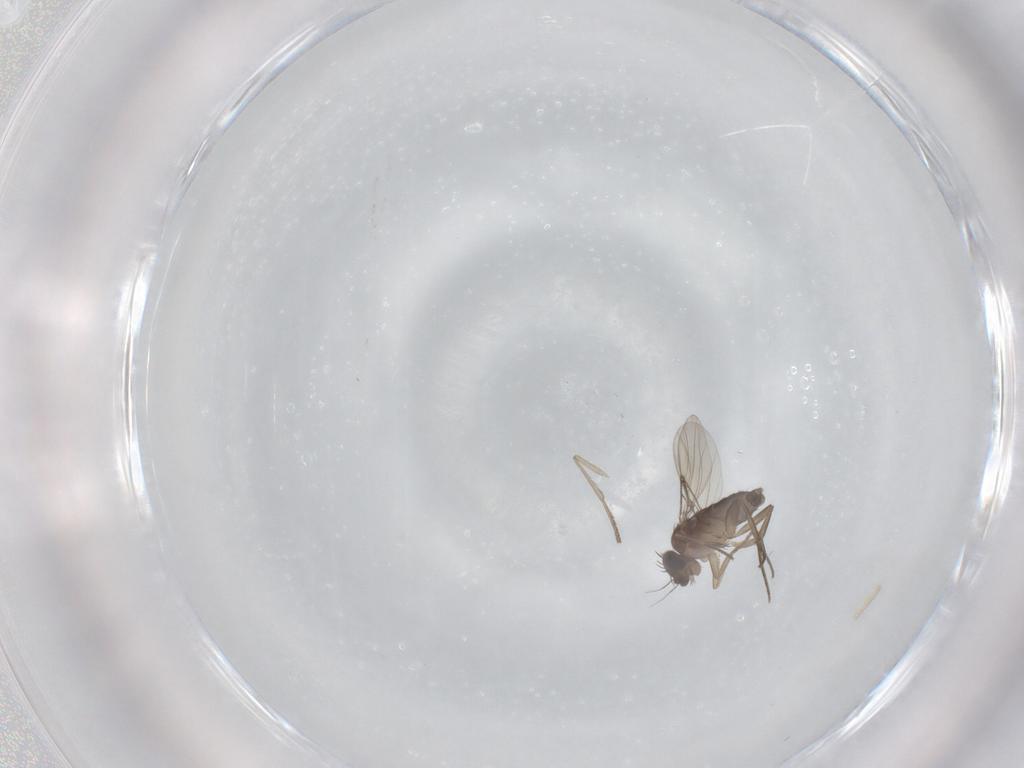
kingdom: Animalia
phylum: Arthropoda
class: Insecta
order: Diptera
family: Phoridae
